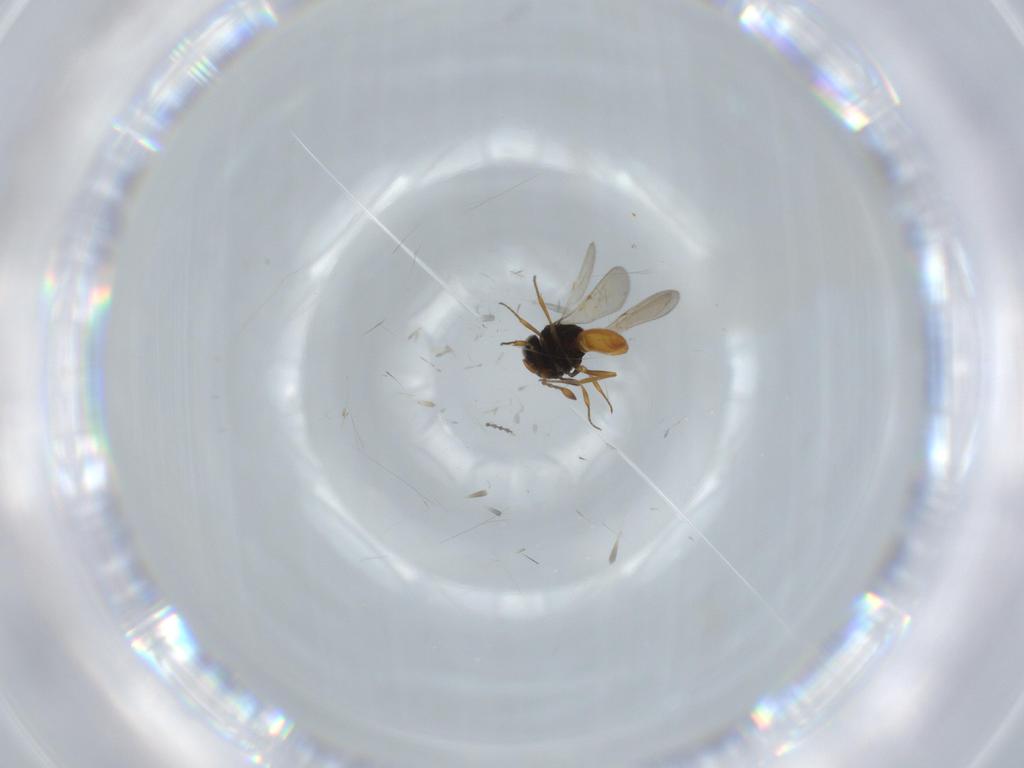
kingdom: Animalia
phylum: Arthropoda
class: Insecta
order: Hymenoptera
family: Scelionidae
